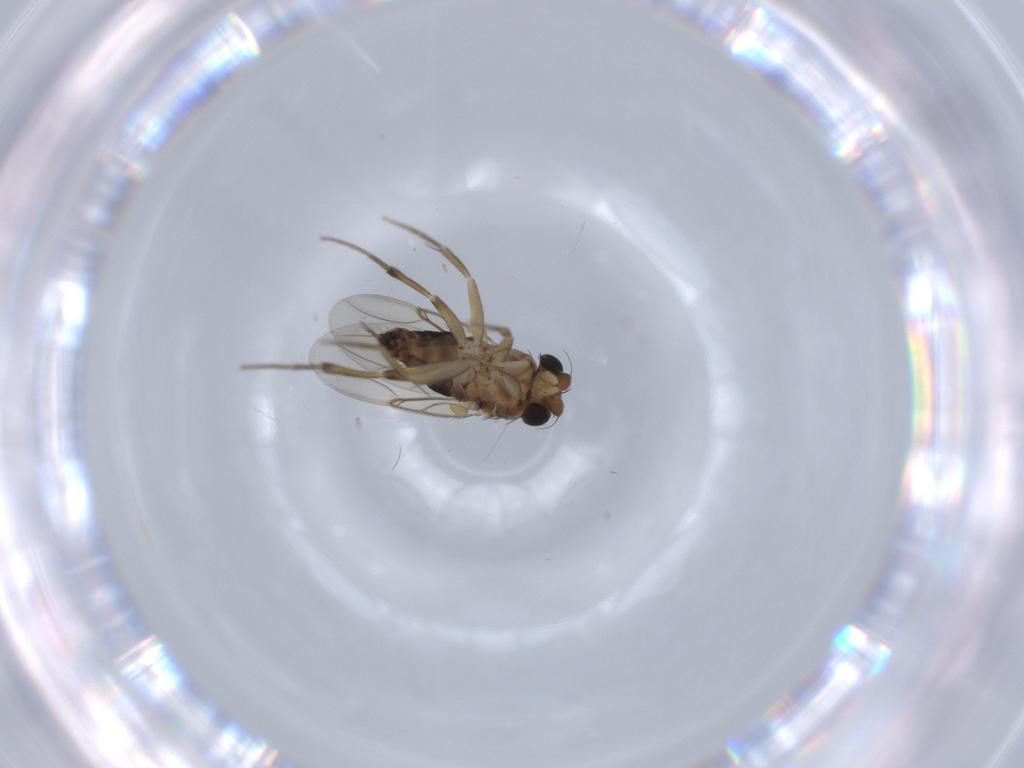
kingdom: Animalia
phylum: Arthropoda
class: Insecta
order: Diptera
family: Phoridae
